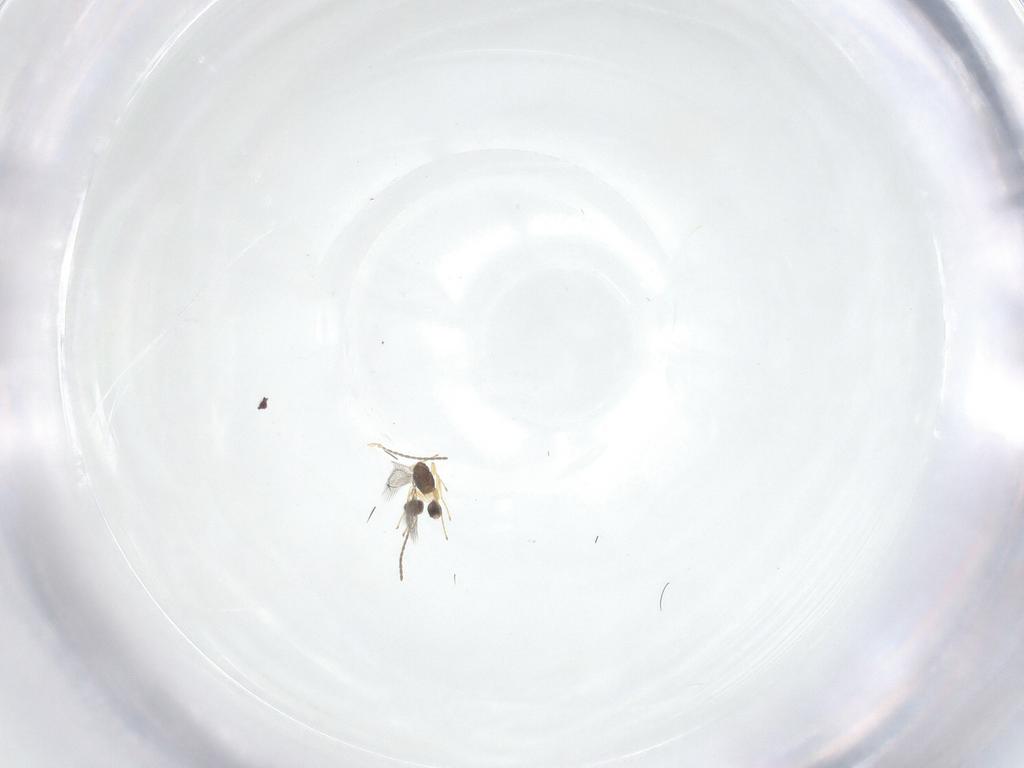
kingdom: Animalia
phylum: Arthropoda
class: Insecta
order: Hymenoptera
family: Mymaridae
